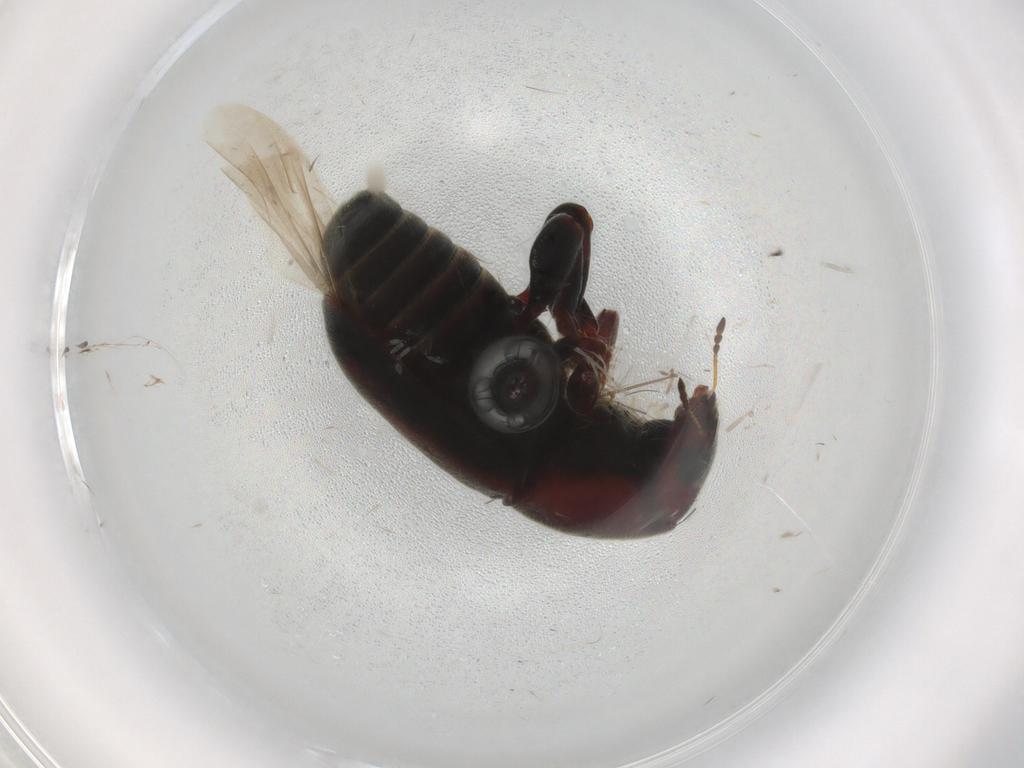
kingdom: Animalia
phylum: Arthropoda
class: Insecta
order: Coleoptera
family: Anthribidae
